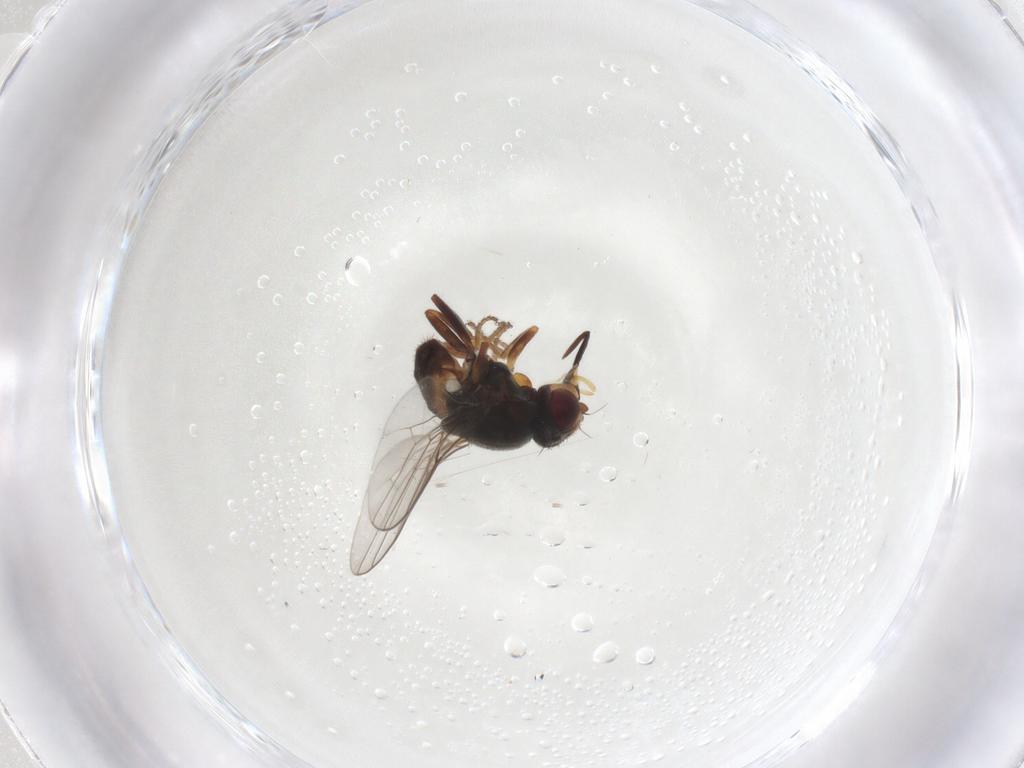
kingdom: Animalia
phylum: Arthropoda
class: Insecta
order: Diptera
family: Chloropidae
